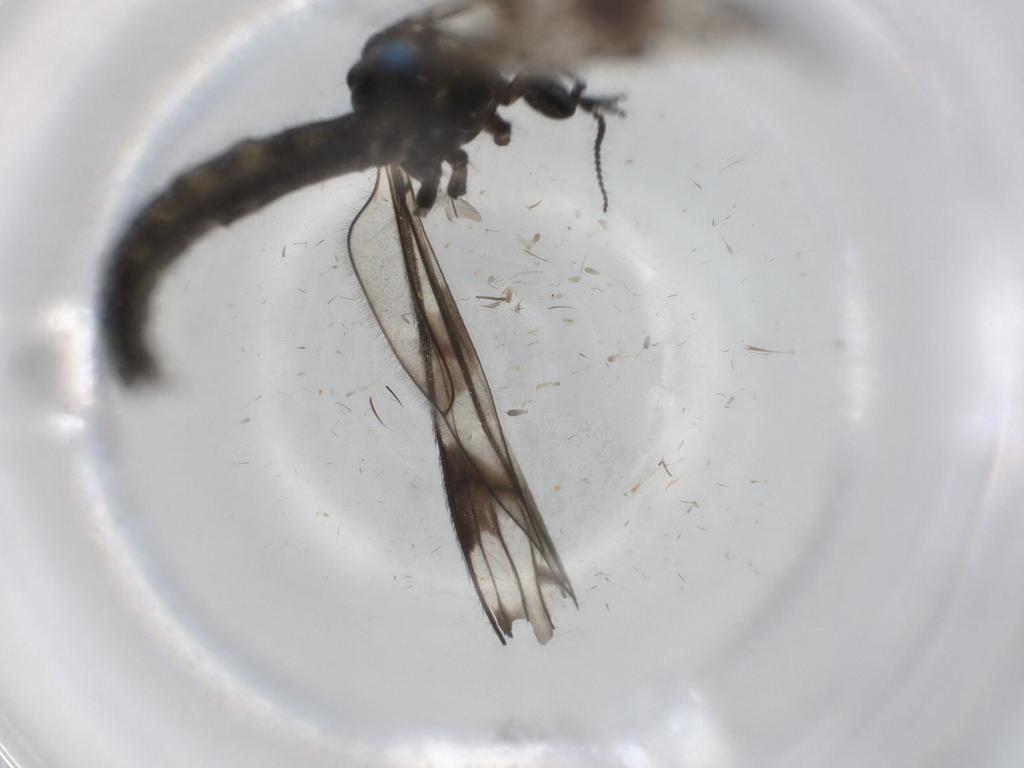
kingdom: Animalia
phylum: Arthropoda
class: Insecta
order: Diptera
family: Limoniidae
